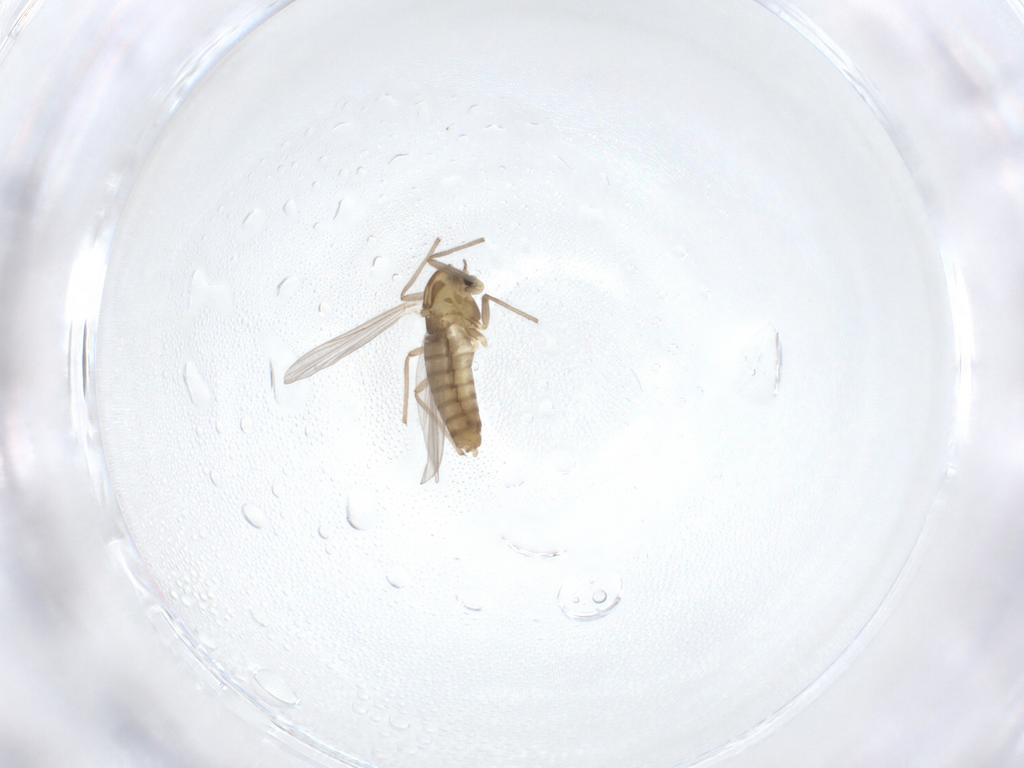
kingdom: Animalia
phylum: Arthropoda
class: Insecta
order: Diptera
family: Chironomidae
